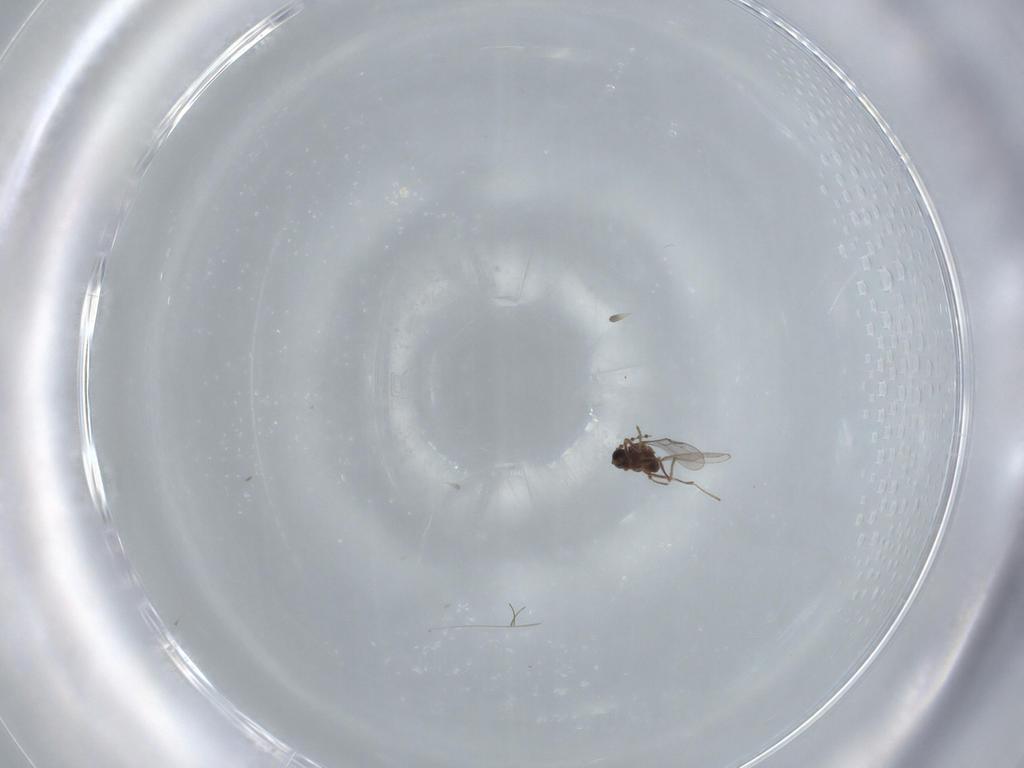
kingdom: Animalia
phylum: Arthropoda
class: Insecta
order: Diptera
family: Cecidomyiidae
